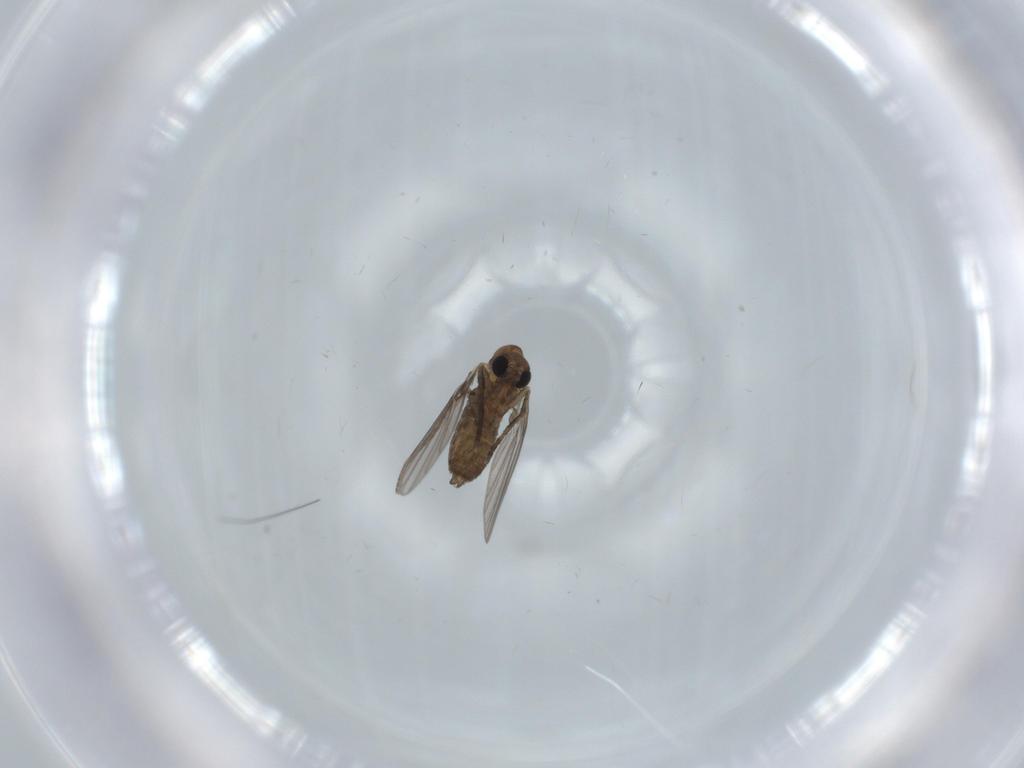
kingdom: Animalia
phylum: Arthropoda
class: Insecta
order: Diptera
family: Psychodidae
